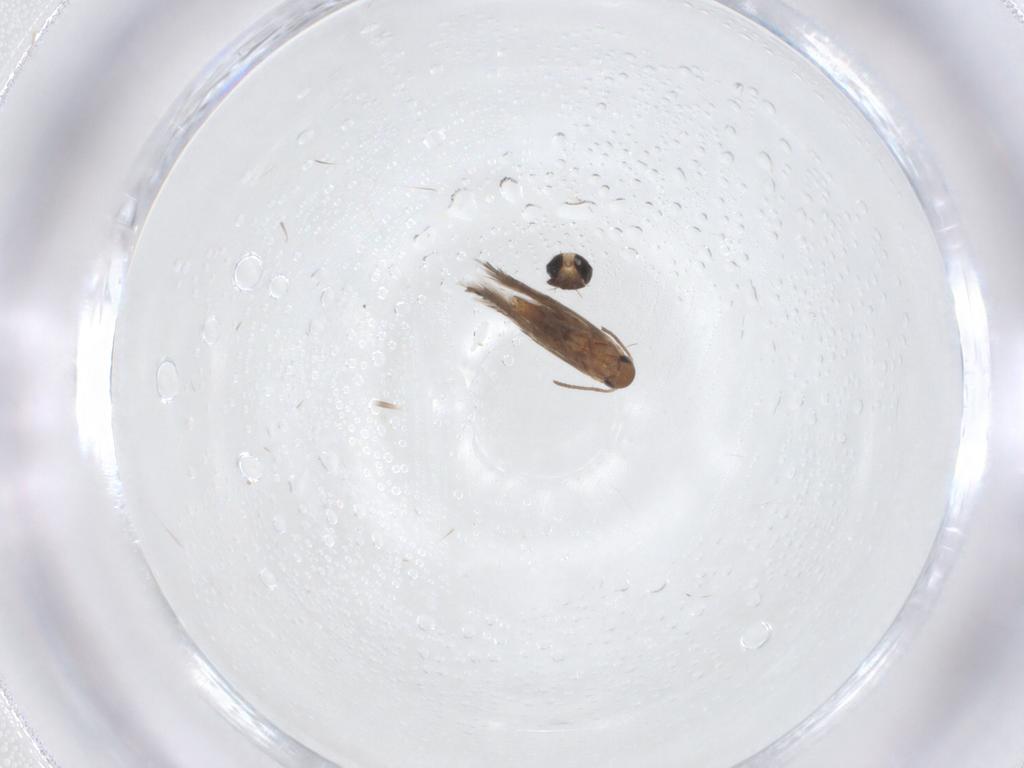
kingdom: Animalia
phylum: Arthropoda
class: Insecta
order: Lepidoptera
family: Heliozelidae
